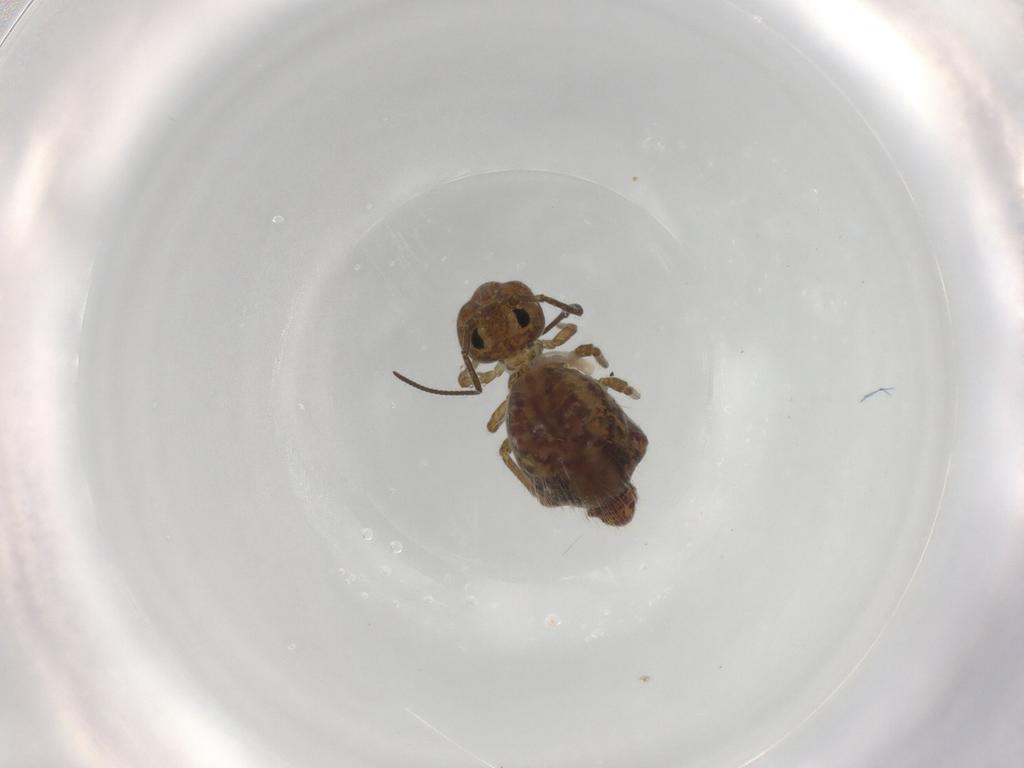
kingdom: Animalia
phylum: Arthropoda
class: Collembola
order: Symphypleona
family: Sminthuridae
